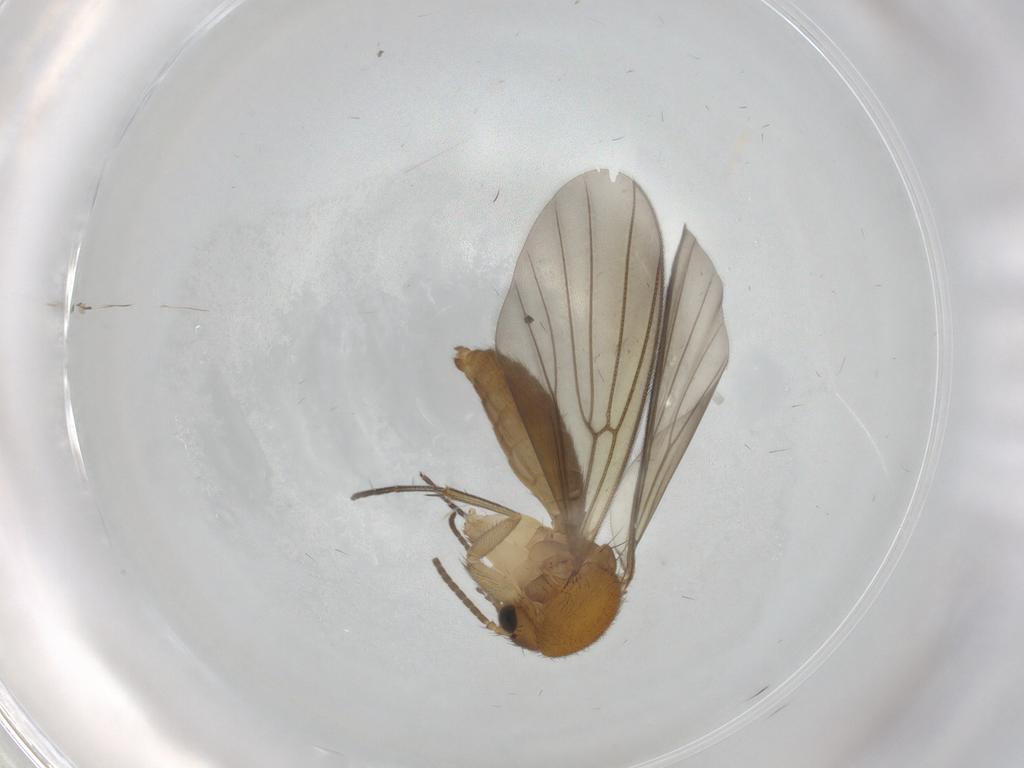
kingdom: Animalia
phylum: Arthropoda
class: Insecta
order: Diptera
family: Mycetophilidae
